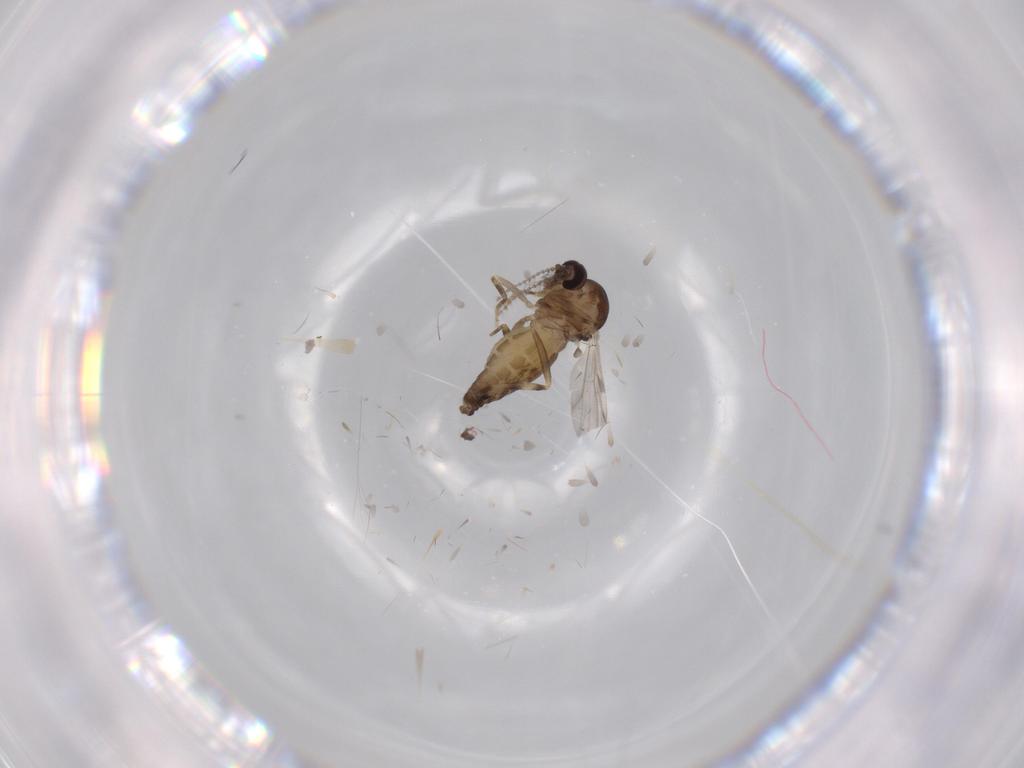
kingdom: Animalia
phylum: Arthropoda
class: Insecta
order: Diptera
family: Ceratopogonidae
